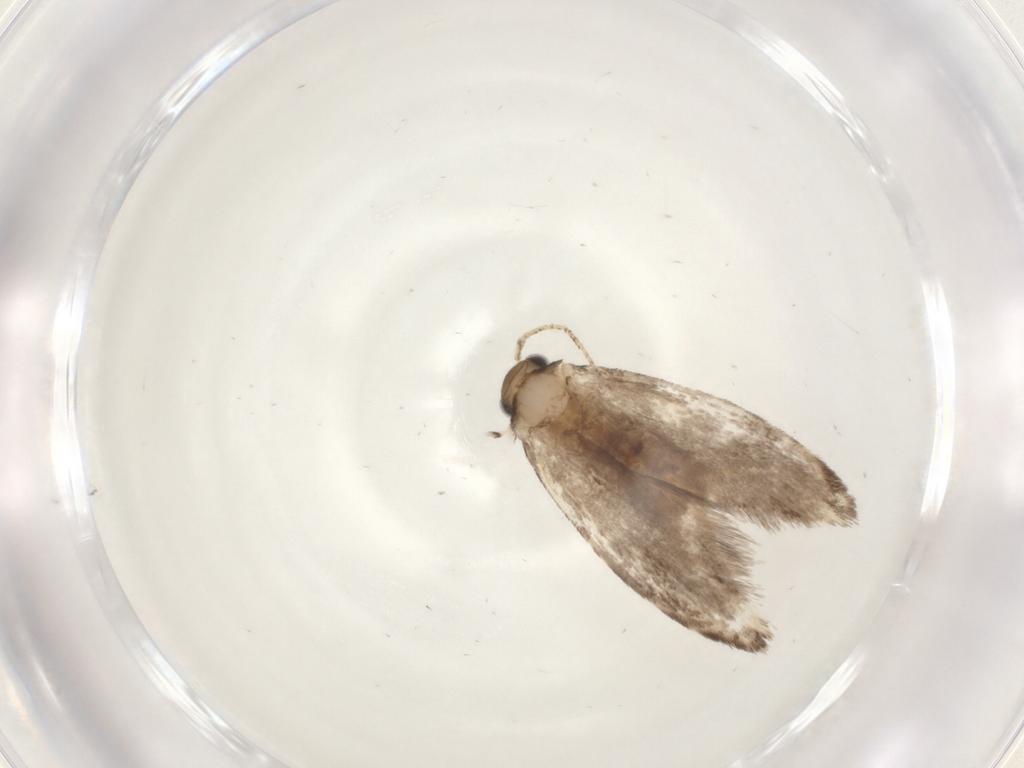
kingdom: Animalia
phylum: Arthropoda
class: Insecta
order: Lepidoptera
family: Tineidae
